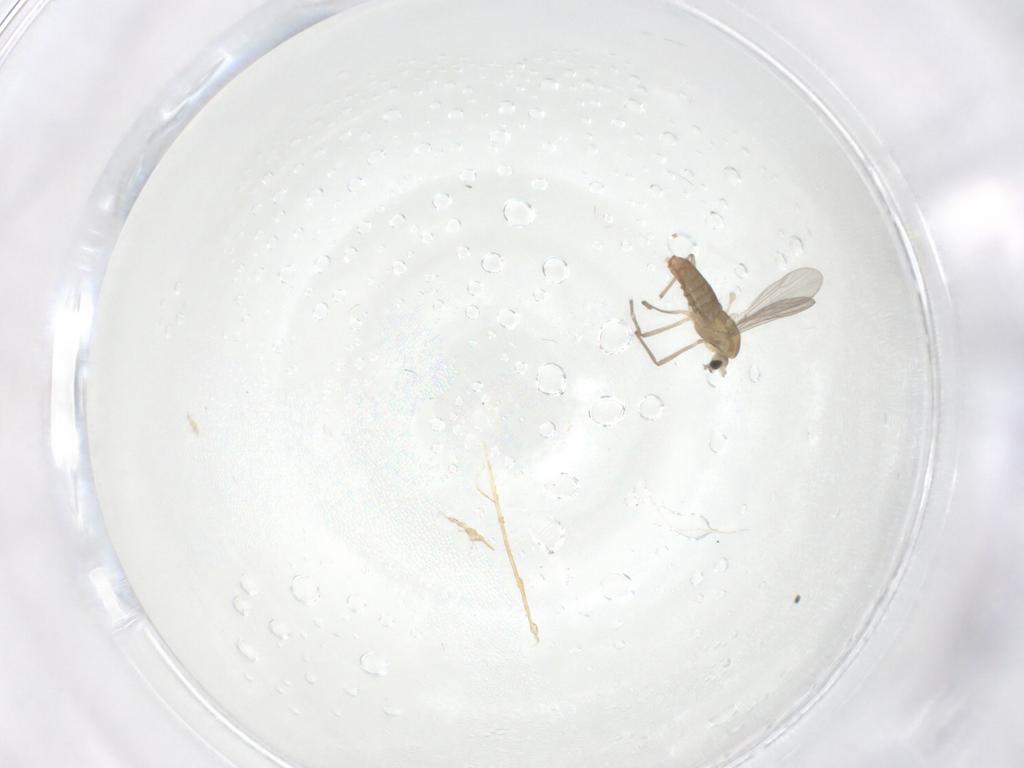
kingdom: Animalia
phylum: Arthropoda
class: Insecta
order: Diptera
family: Chironomidae
